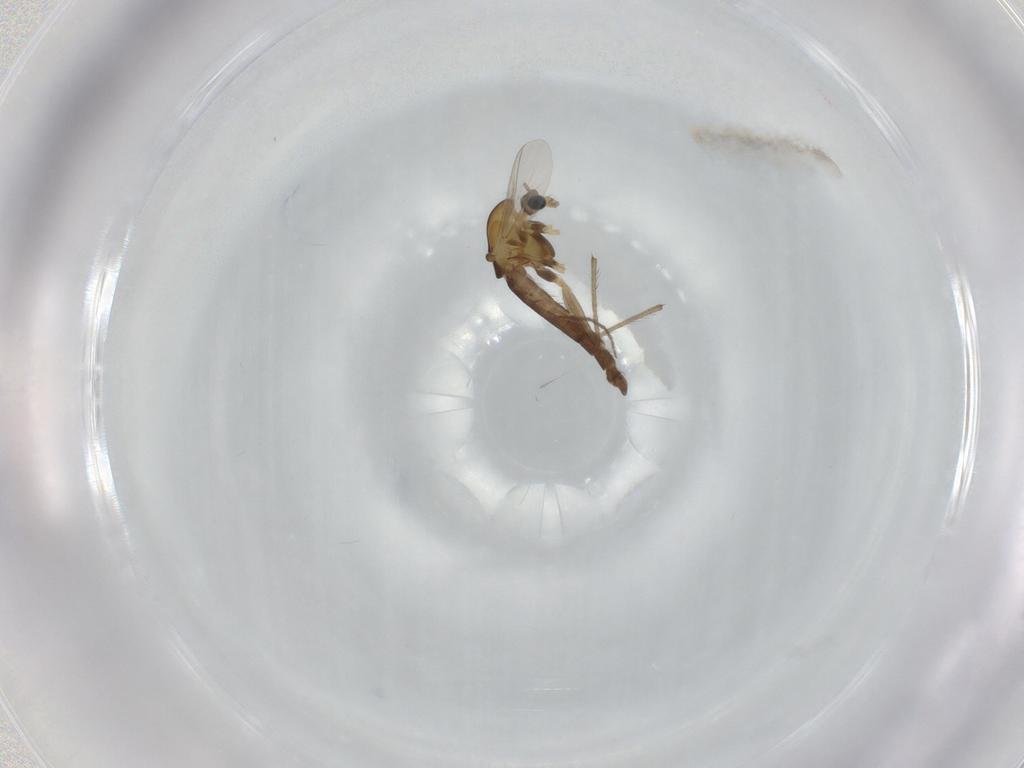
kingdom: Animalia
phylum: Arthropoda
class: Insecta
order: Diptera
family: Chironomidae
